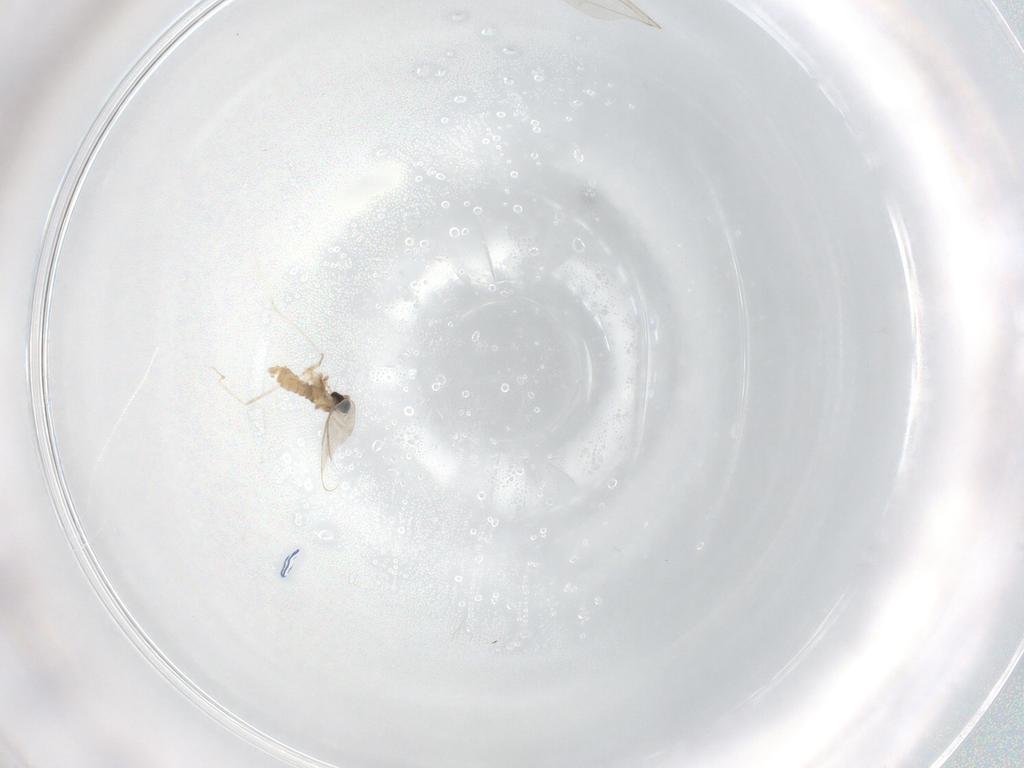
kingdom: Animalia
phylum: Arthropoda
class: Insecta
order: Diptera
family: Cecidomyiidae
